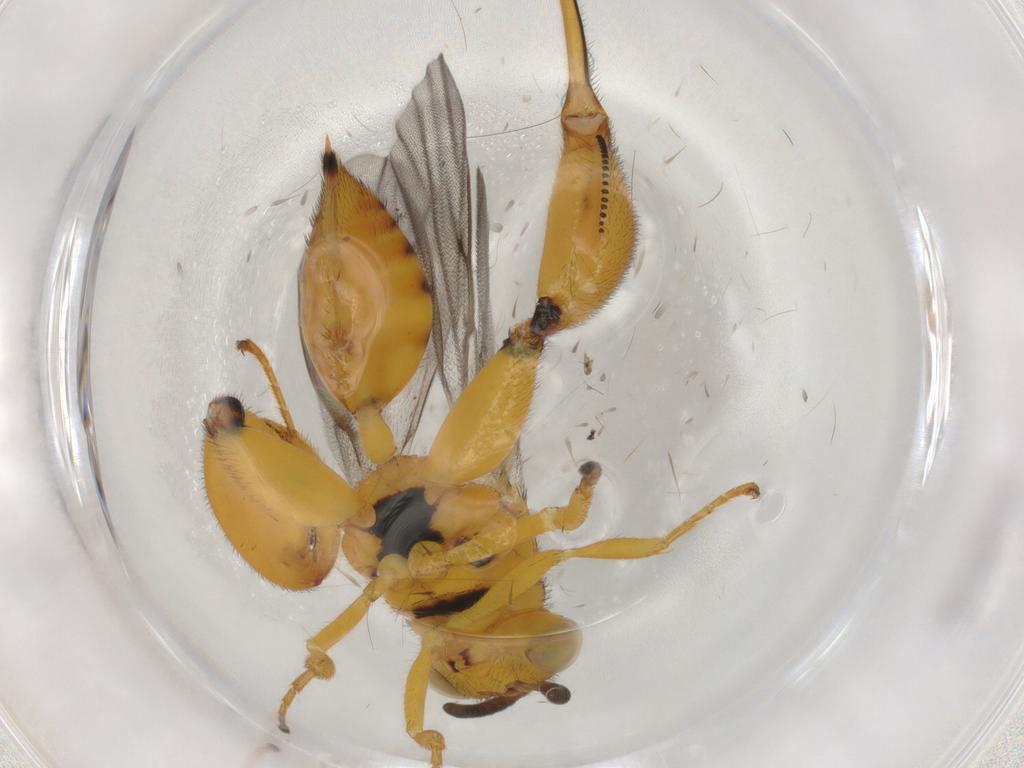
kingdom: Animalia
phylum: Arthropoda
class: Insecta
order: Hymenoptera
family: Chalcididae
